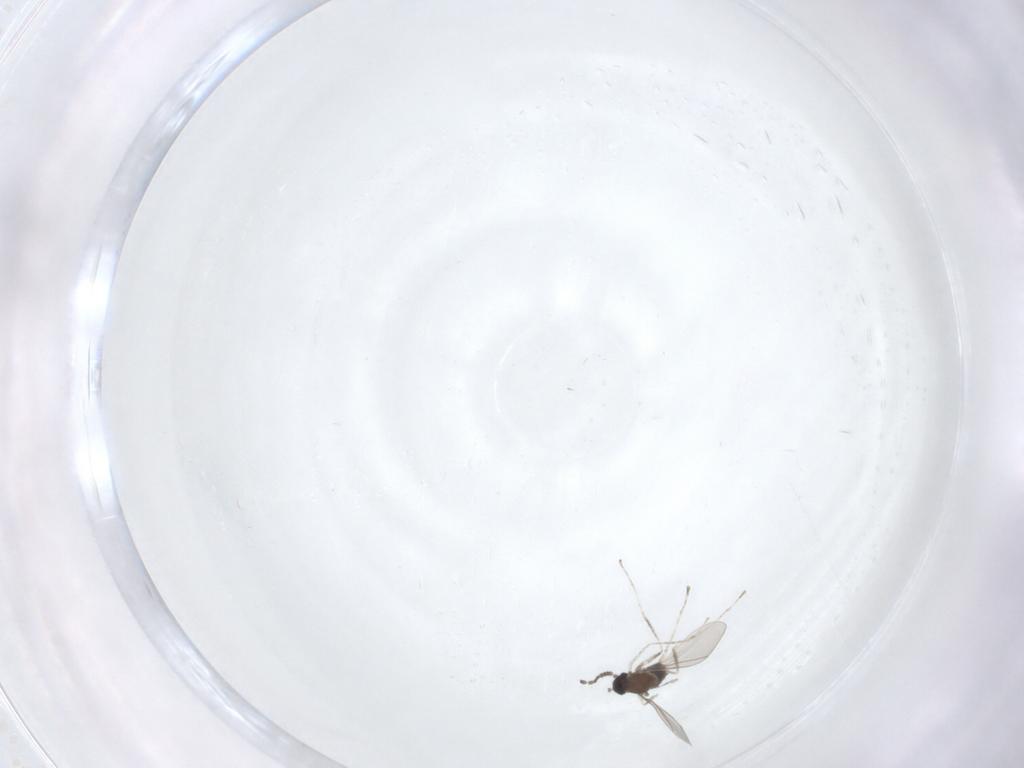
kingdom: Animalia
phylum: Arthropoda
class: Insecta
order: Diptera
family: Cecidomyiidae
